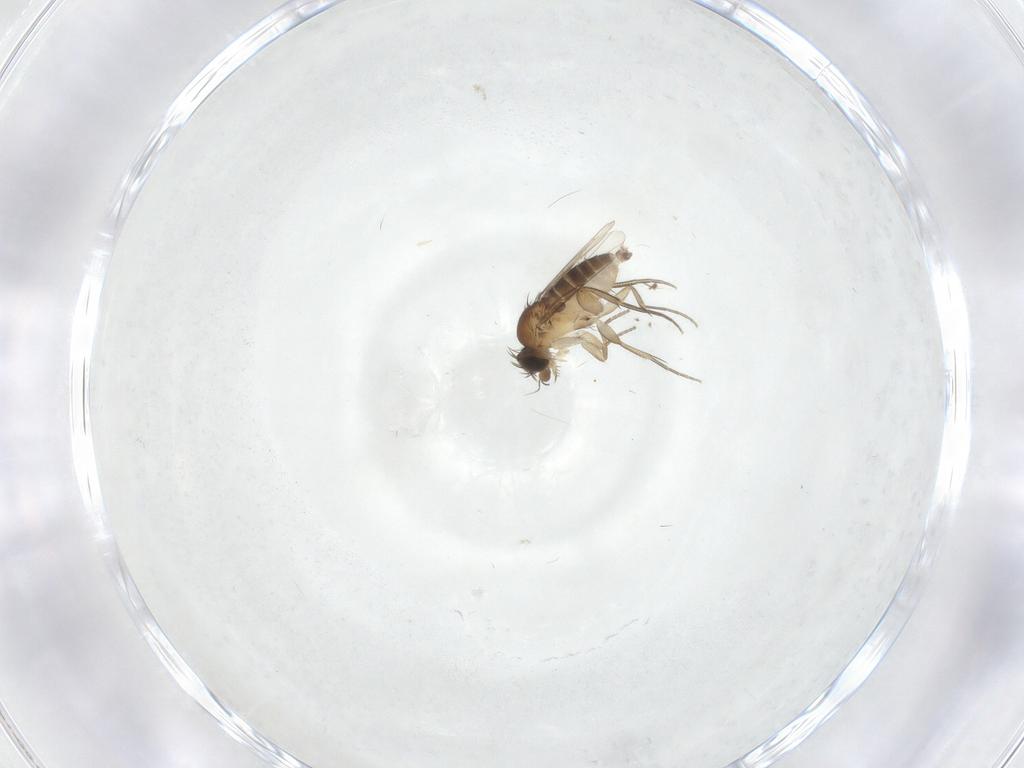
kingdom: Animalia
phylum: Arthropoda
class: Insecta
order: Diptera
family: Phoridae
